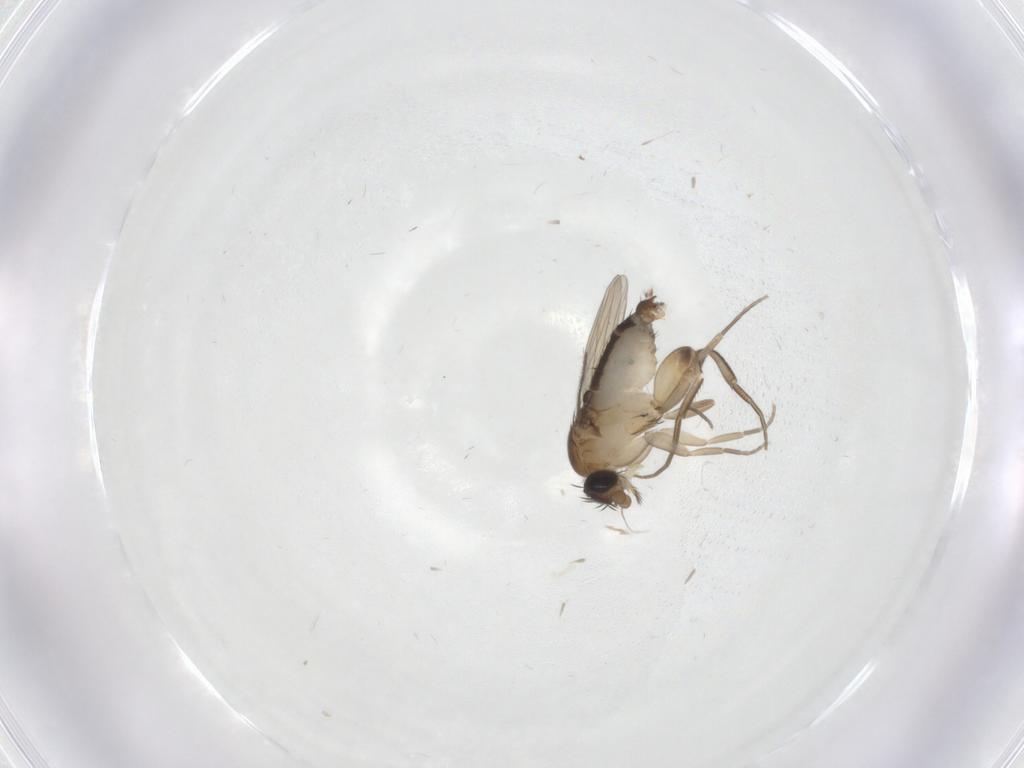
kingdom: Animalia
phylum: Arthropoda
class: Insecta
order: Diptera
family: Phoridae
